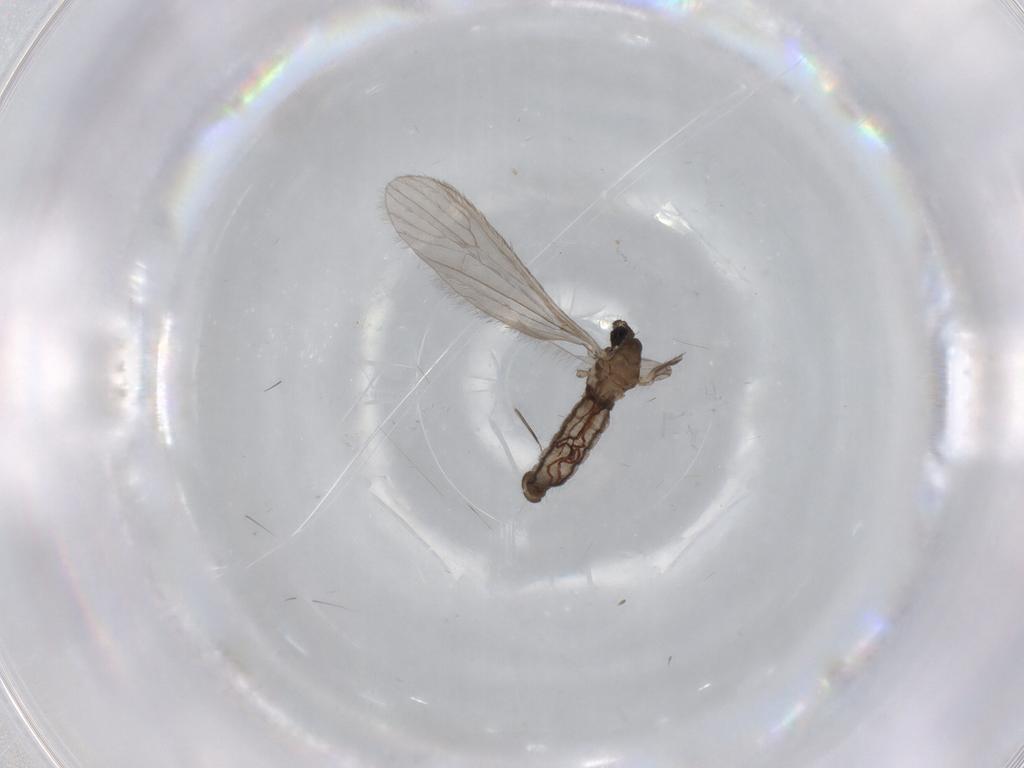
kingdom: Animalia
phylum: Arthropoda
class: Insecta
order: Diptera
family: Limoniidae
